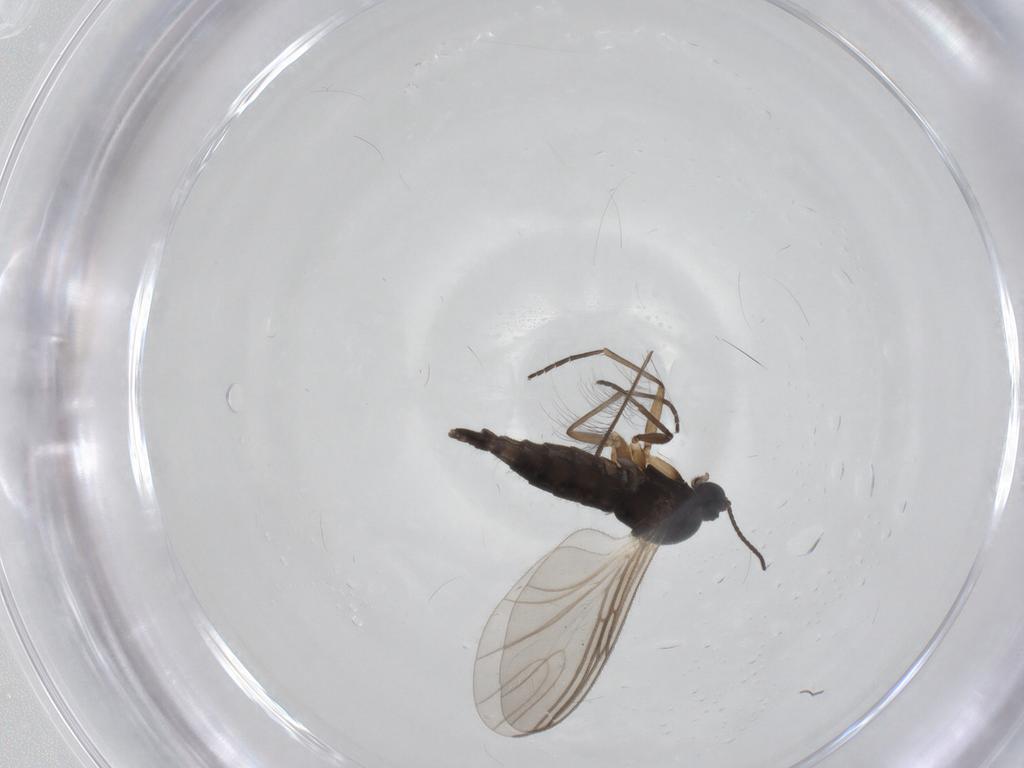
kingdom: Animalia
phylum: Arthropoda
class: Insecta
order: Diptera
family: Sciaridae
